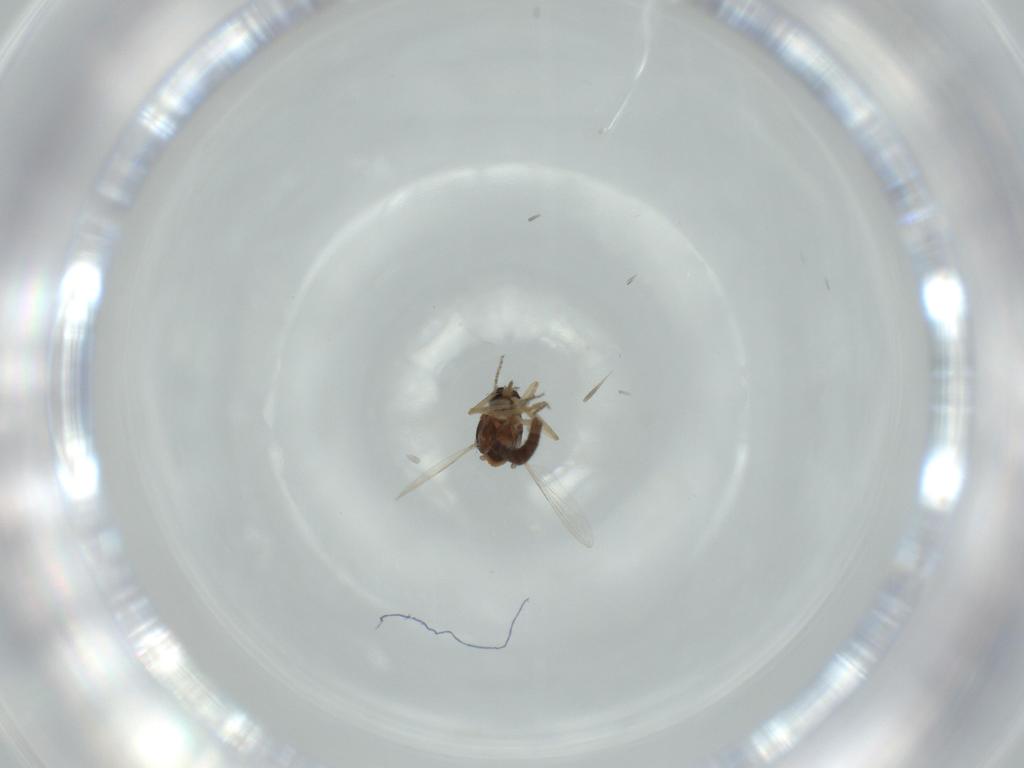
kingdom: Animalia
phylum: Arthropoda
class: Insecta
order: Diptera
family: Ceratopogonidae
